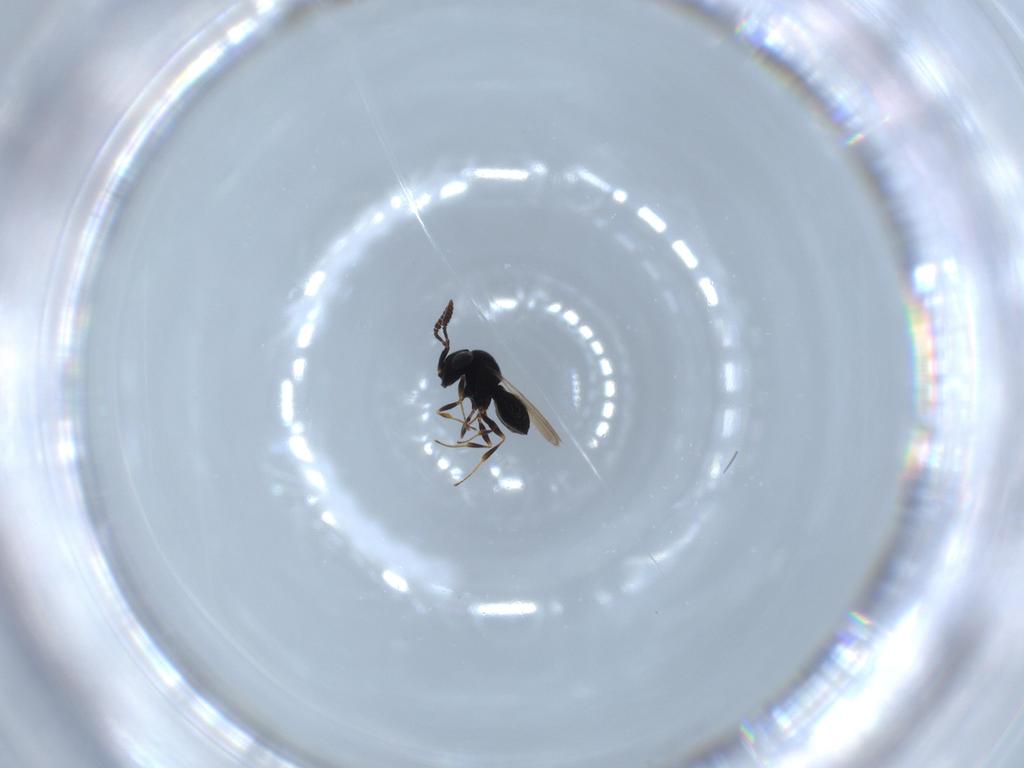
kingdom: Animalia
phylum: Arthropoda
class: Insecta
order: Hymenoptera
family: Scelionidae
